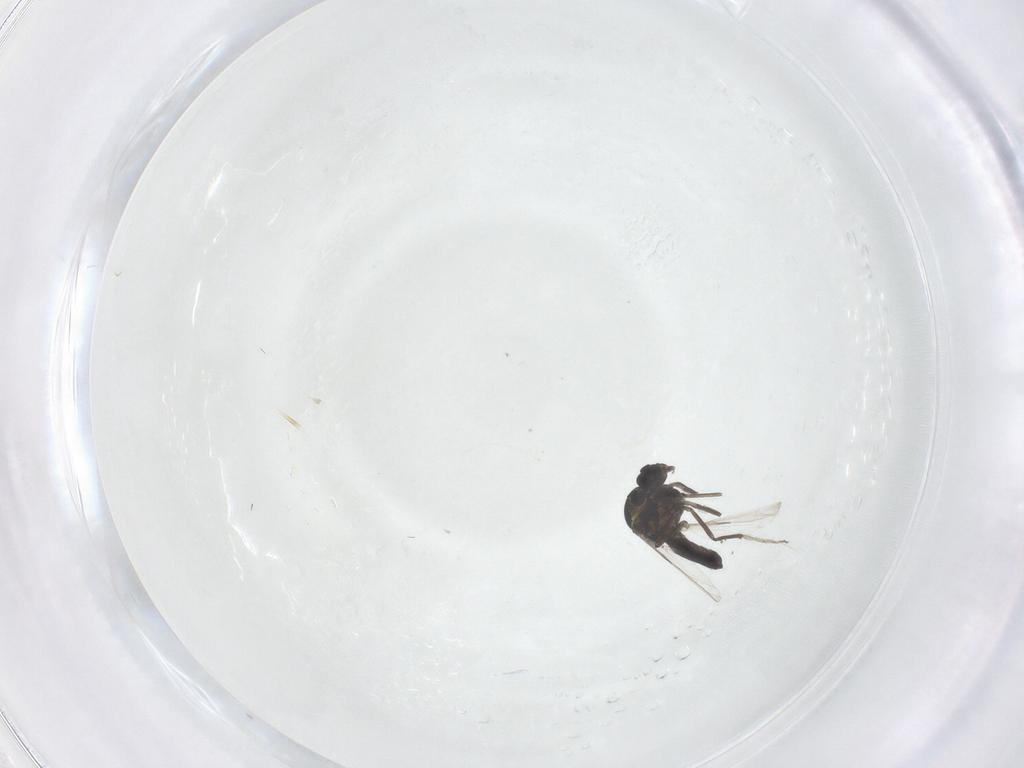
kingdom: Animalia
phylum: Arthropoda
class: Insecta
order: Diptera
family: Ceratopogonidae
